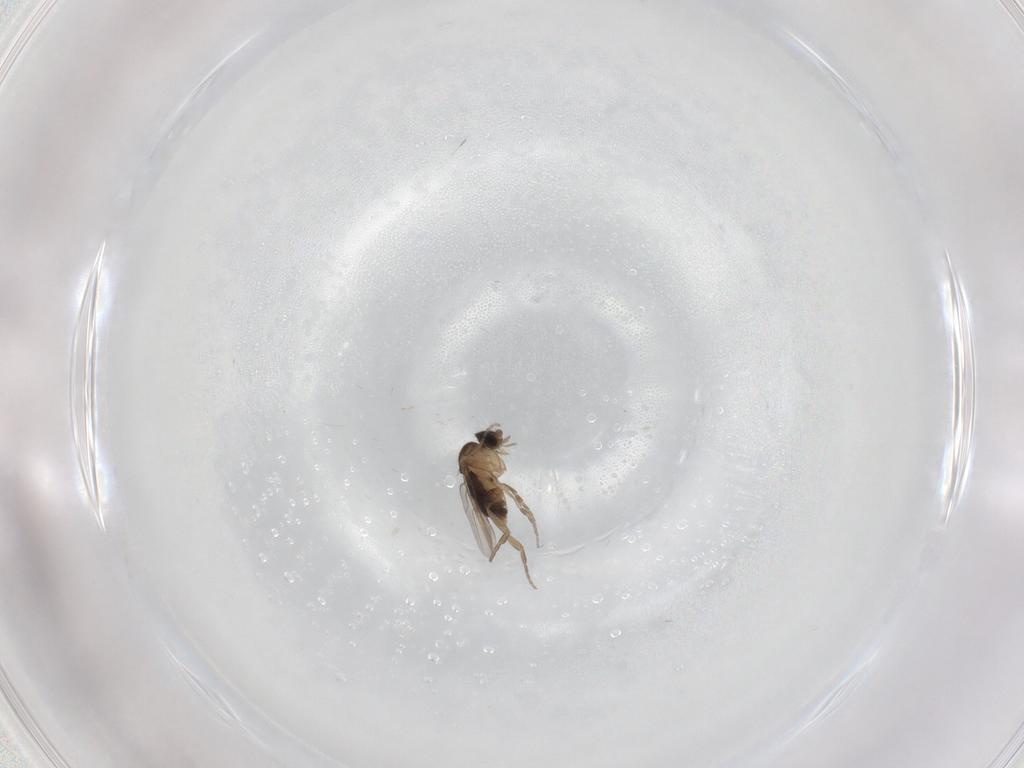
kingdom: Animalia
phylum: Arthropoda
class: Insecta
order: Diptera
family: Phoridae
